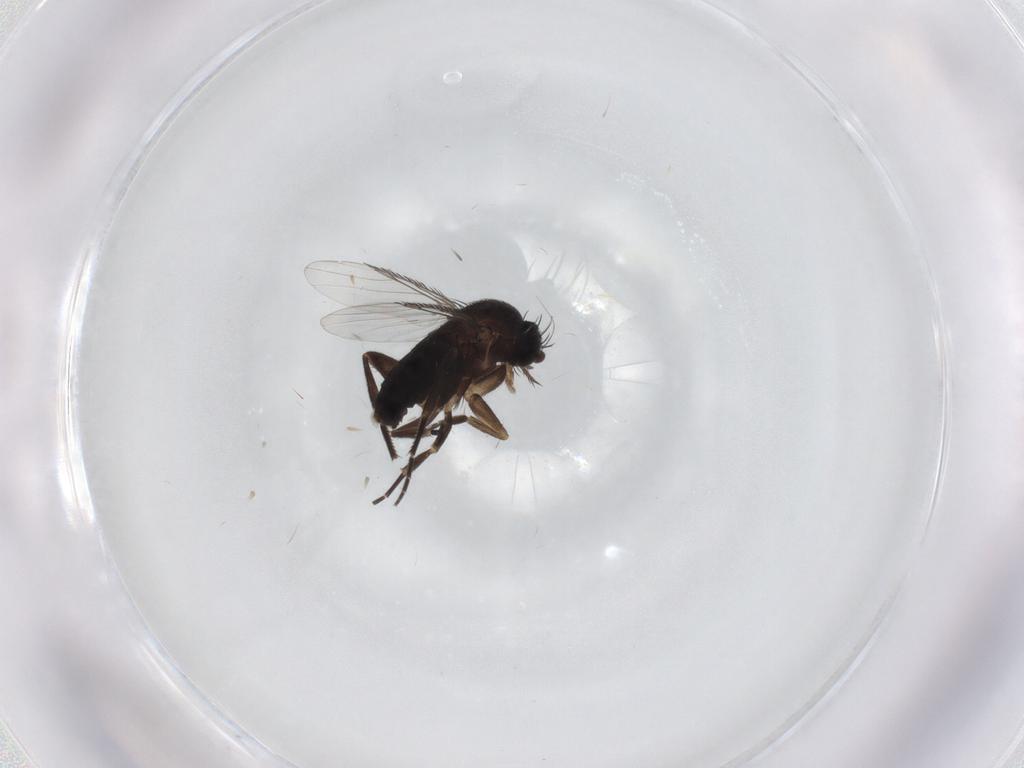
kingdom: Animalia
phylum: Arthropoda
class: Insecta
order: Diptera
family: Phoridae
